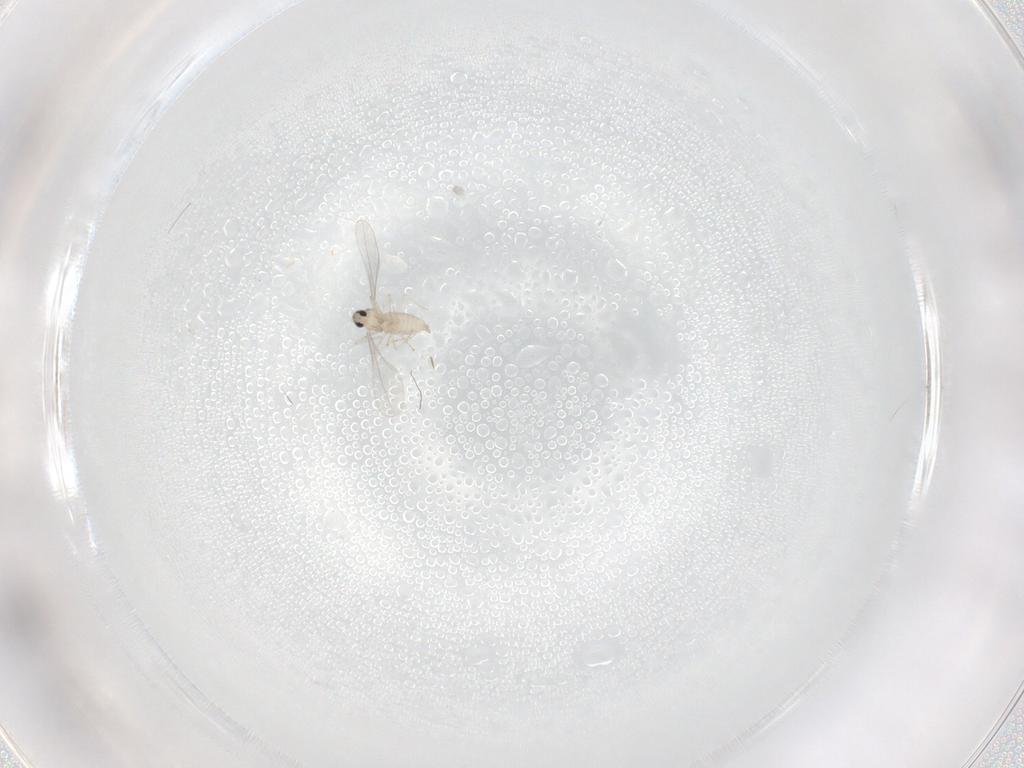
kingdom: Animalia
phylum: Arthropoda
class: Insecta
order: Diptera
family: Cecidomyiidae
